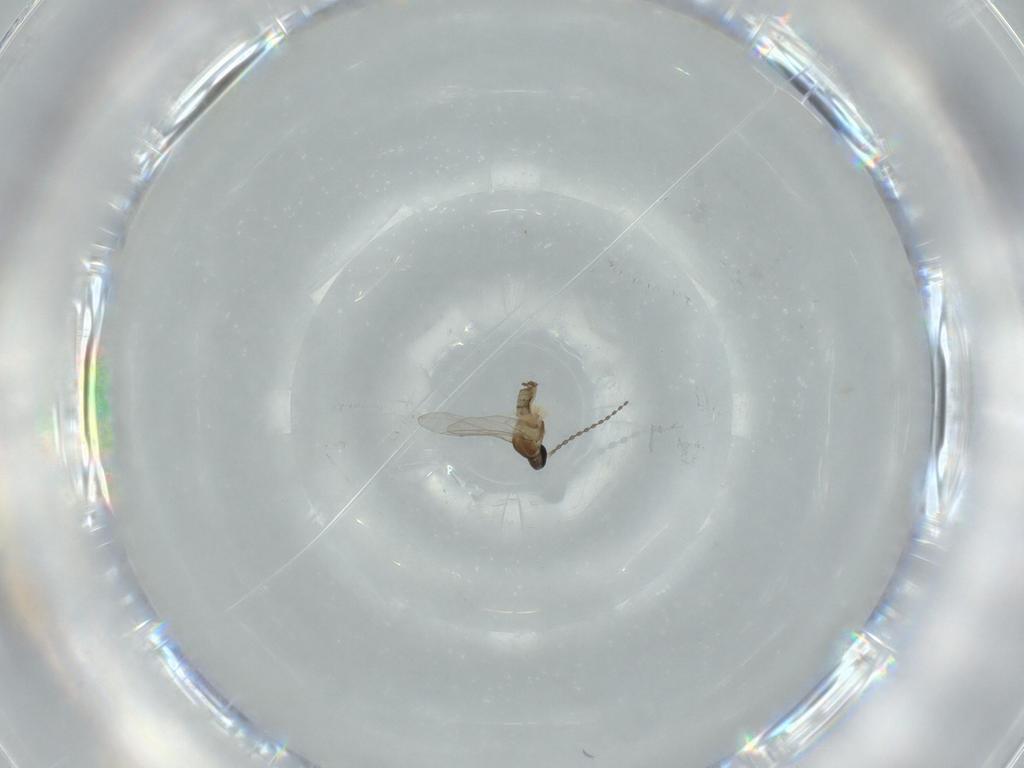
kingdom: Animalia
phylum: Arthropoda
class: Insecta
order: Diptera
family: Cecidomyiidae
